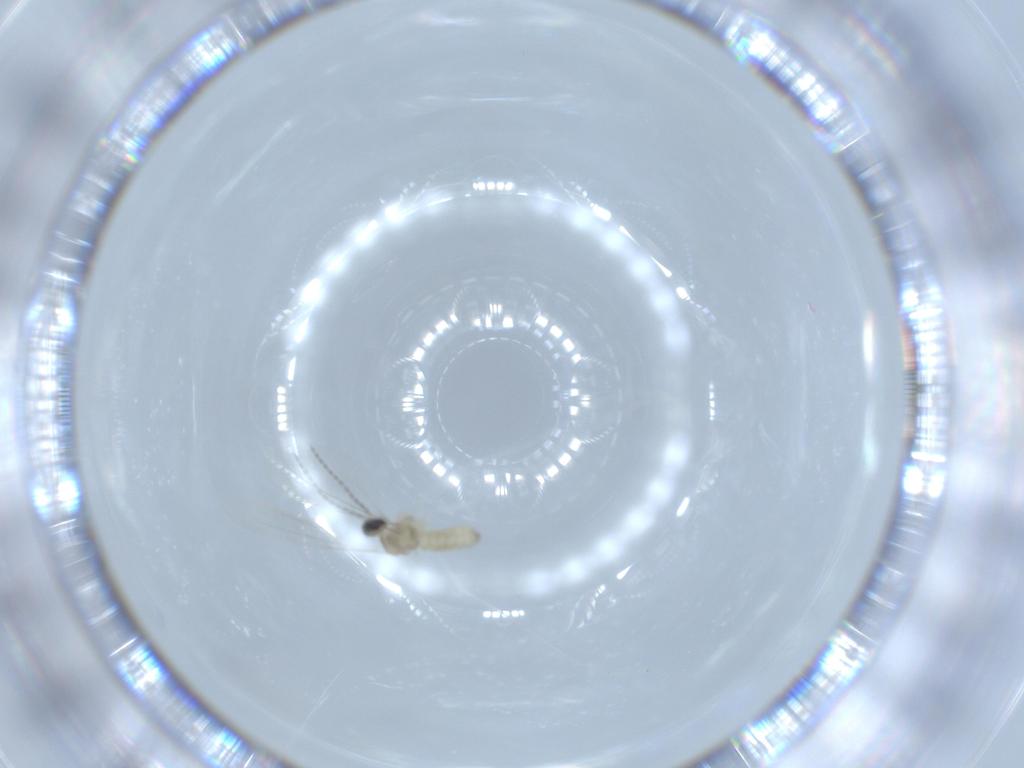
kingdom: Animalia
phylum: Arthropoda
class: Insecta
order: Diptera
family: Cecidomyiidae
